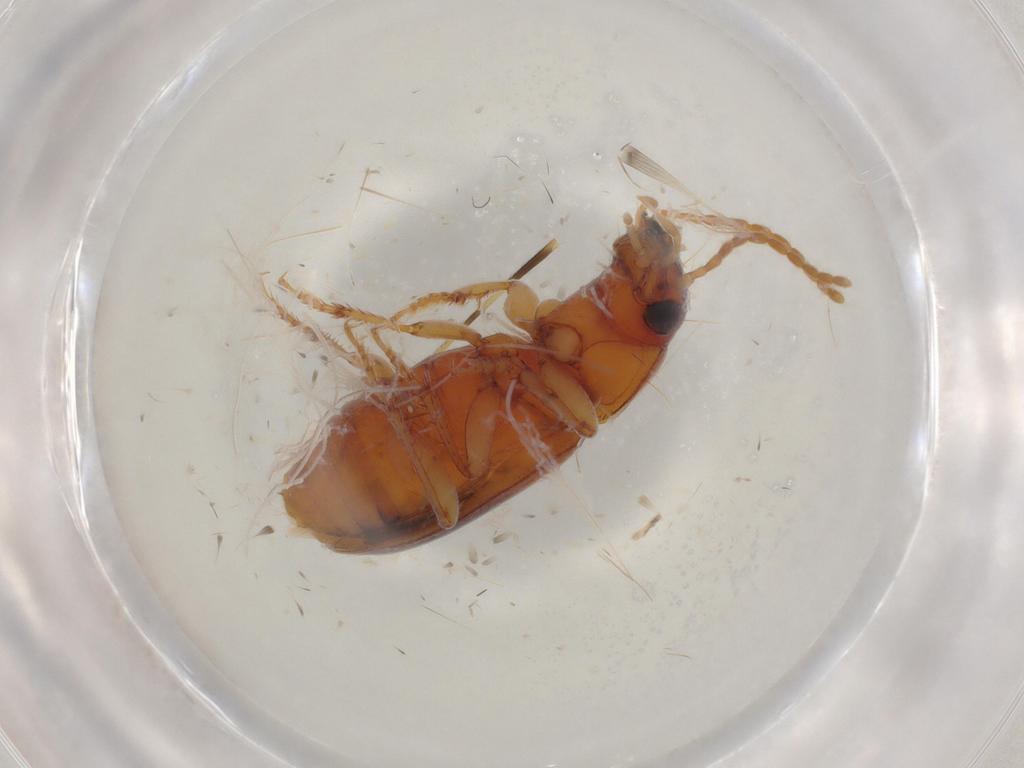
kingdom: Animalia
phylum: Arthropoda
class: Insecta
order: Coleoptera
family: Carabidae
